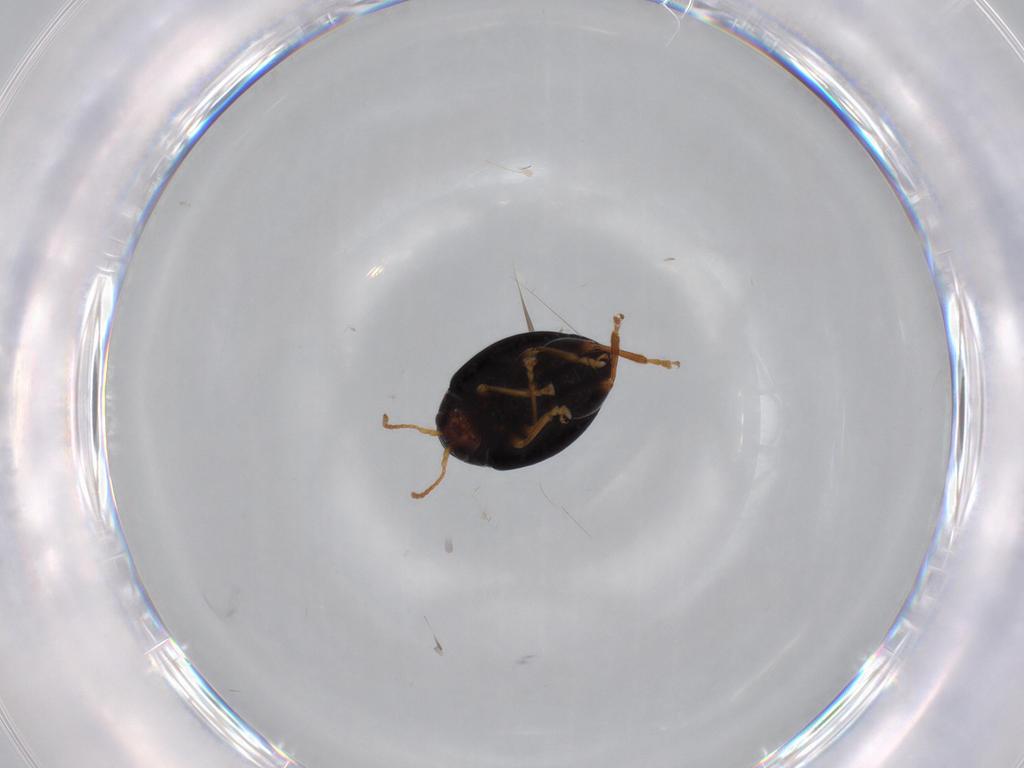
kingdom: Animalia
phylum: Arthropoda
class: Insecta
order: Coleoptera
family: Chrysomelidae
